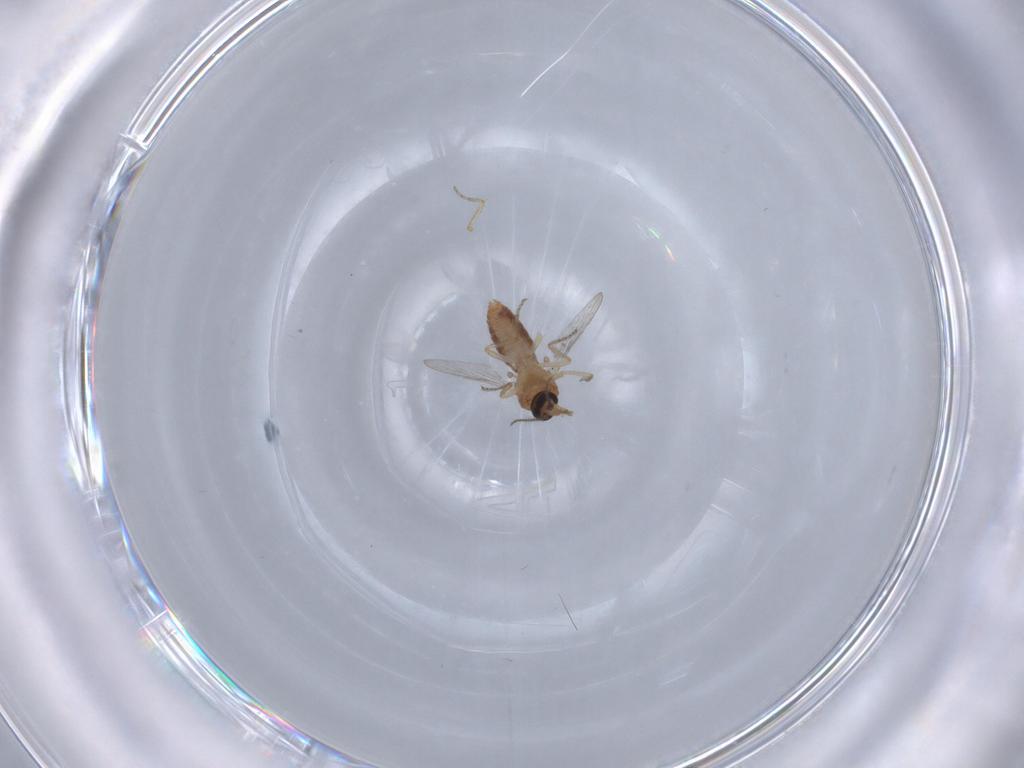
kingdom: Animalia
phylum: Arthropoda
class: Insecta
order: Diptera
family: Ceratopogonidae
